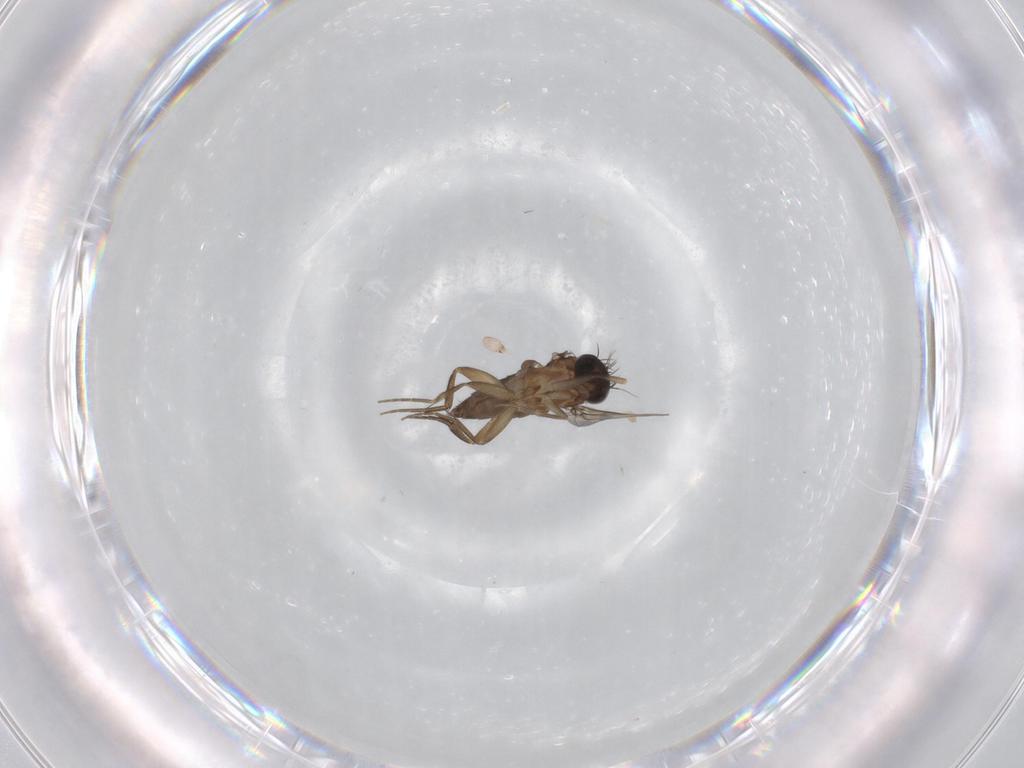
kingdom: Animalia
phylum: Arthropoda
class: Insecta
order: Diptera
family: Phoridae
